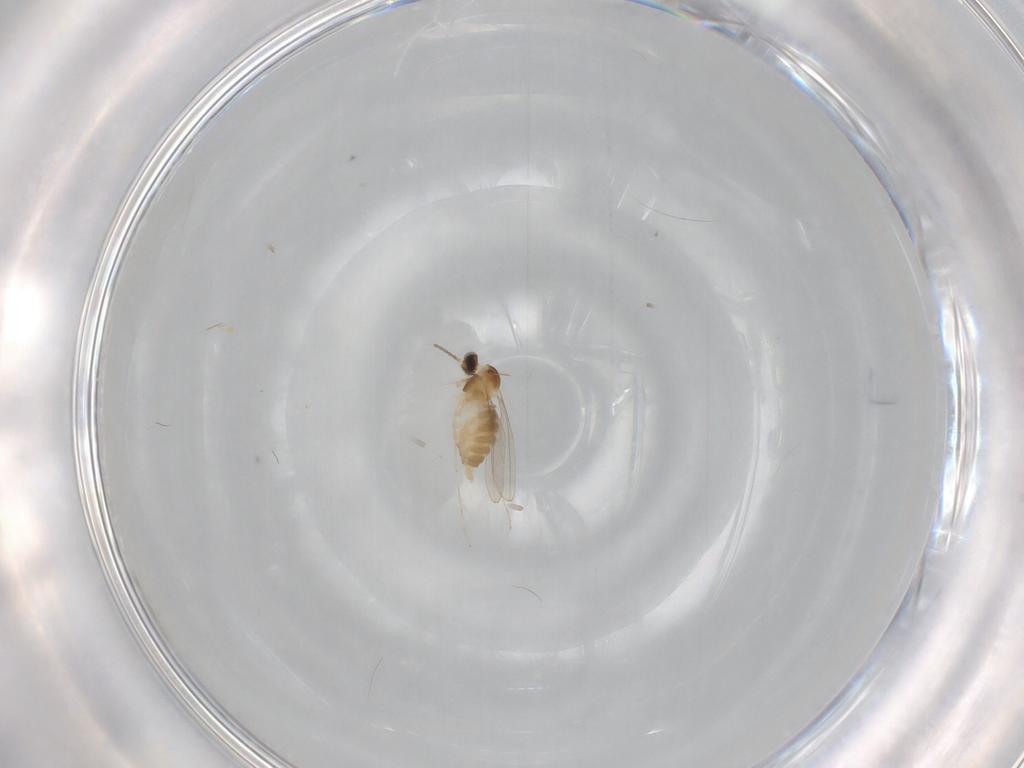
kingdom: Animalia
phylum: Arthropoda
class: Insecta
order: Diptera
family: Cecidomyiidae
